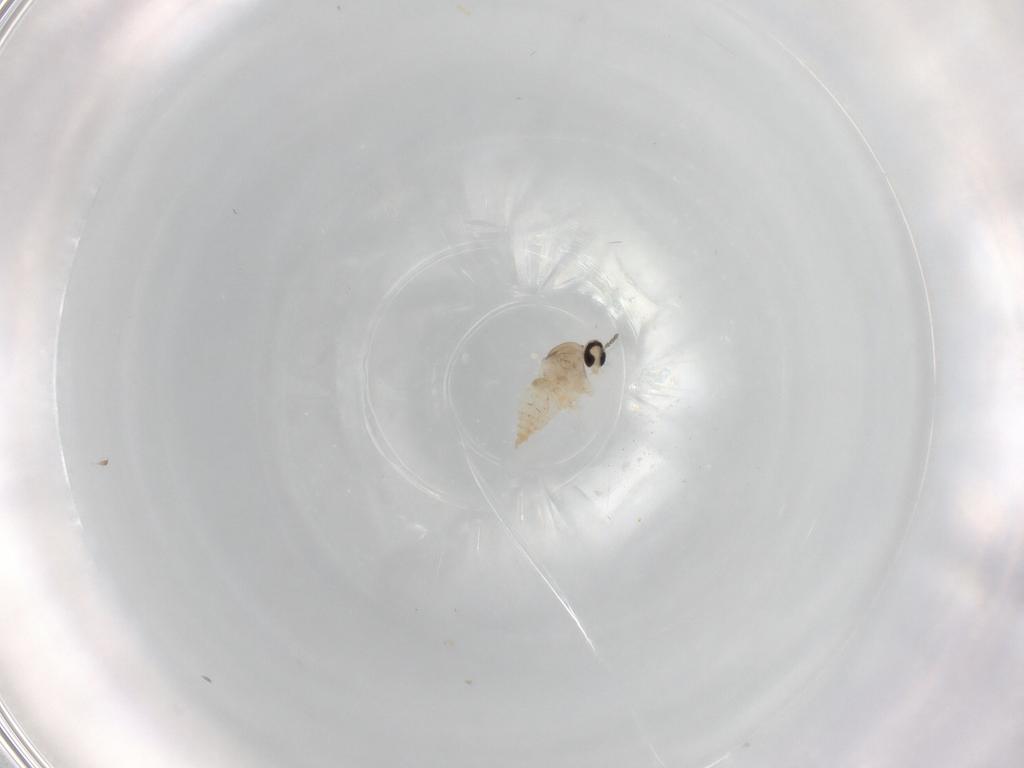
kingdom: Animalia
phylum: Arthropoda
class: Insecta
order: Diptera
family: Cecidomyiidae
